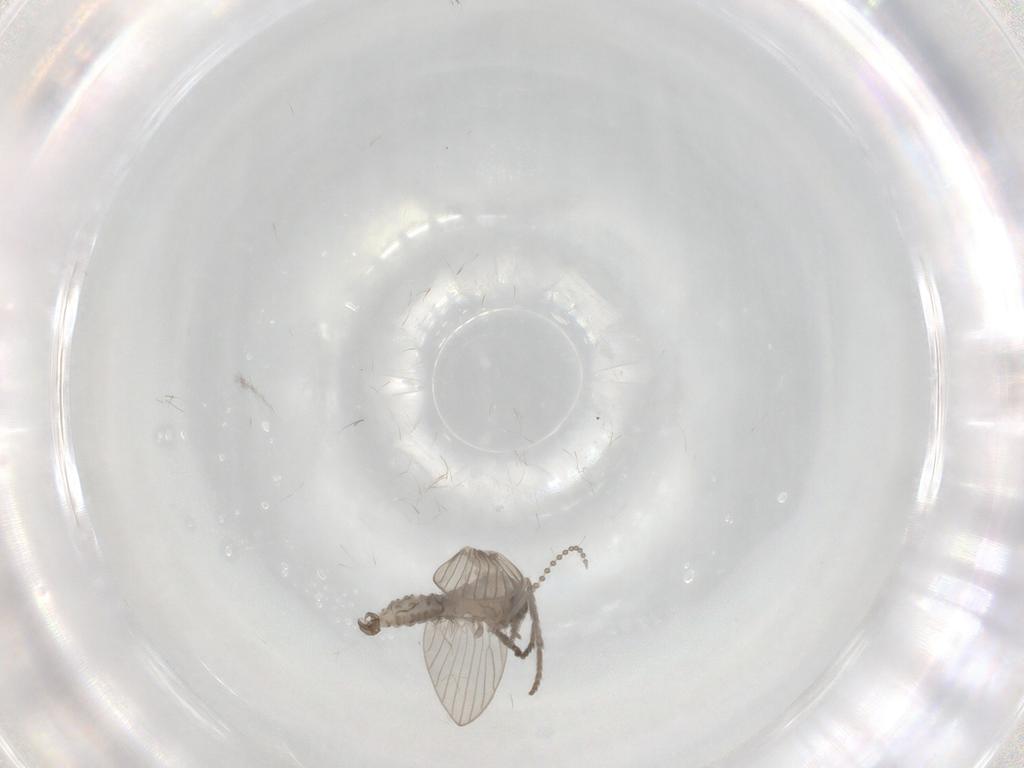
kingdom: Animalia
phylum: Arthropoda
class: Insecta
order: Diptera
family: Psychodidae
